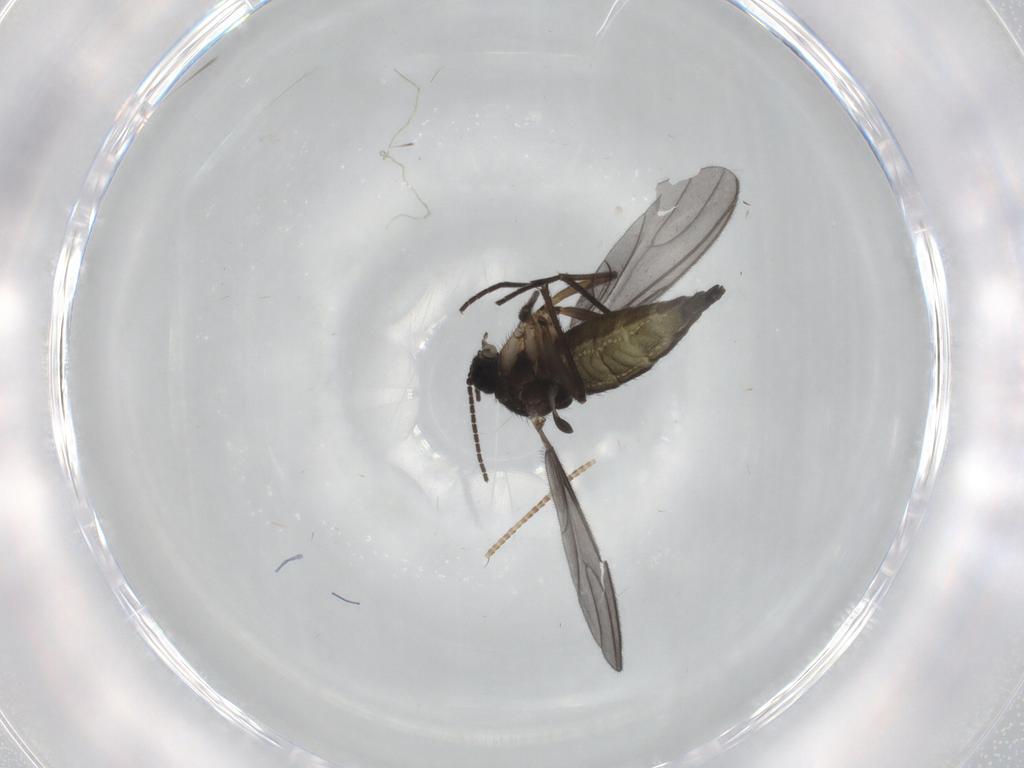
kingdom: Animalia
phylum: Arthropoda
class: Insecta
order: Diptera
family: Sciaridae
